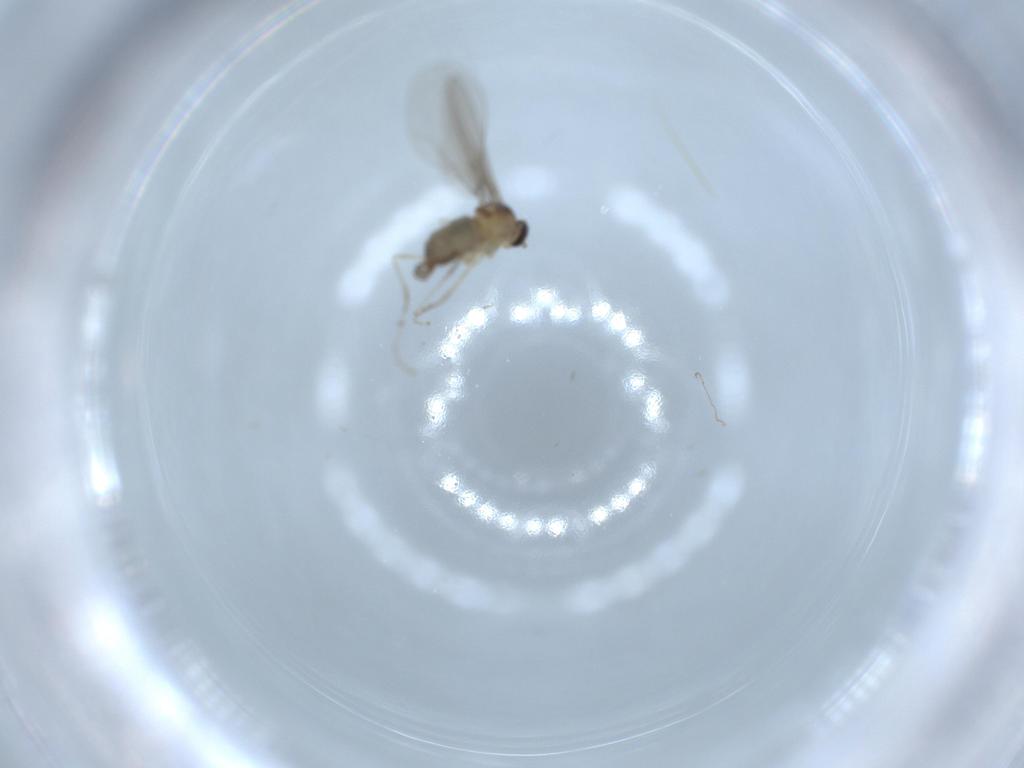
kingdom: Animalia
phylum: Arthropoda
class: Insecta
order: Diptera
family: Cecidomyiidae
